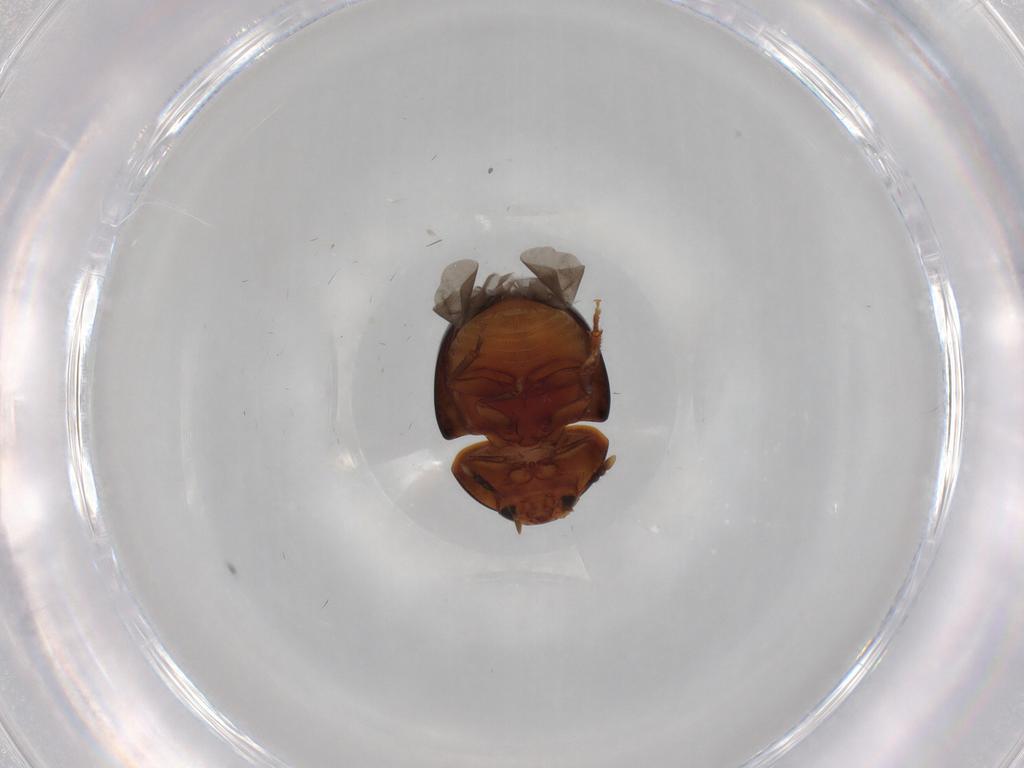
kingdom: Animalia
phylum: Arthropoda
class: Insecta
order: Coleoptera
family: Ptilodactylidae
